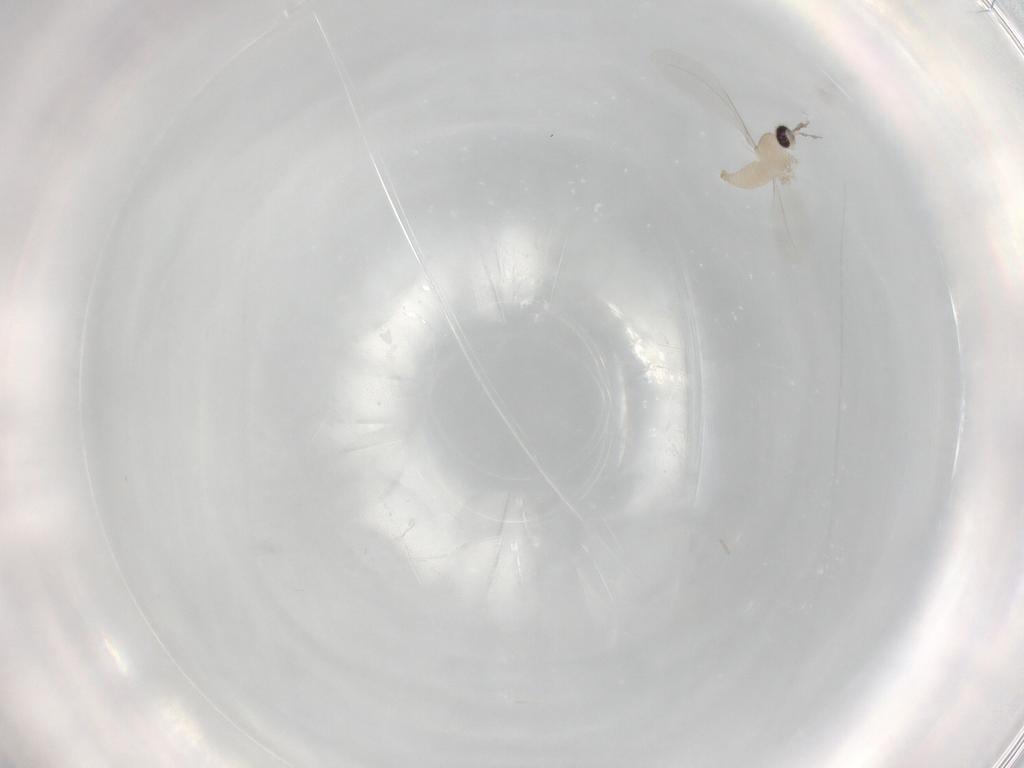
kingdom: Animalia
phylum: Arthropoda
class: Insecta
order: Diptera
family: Cecidomyiidae
